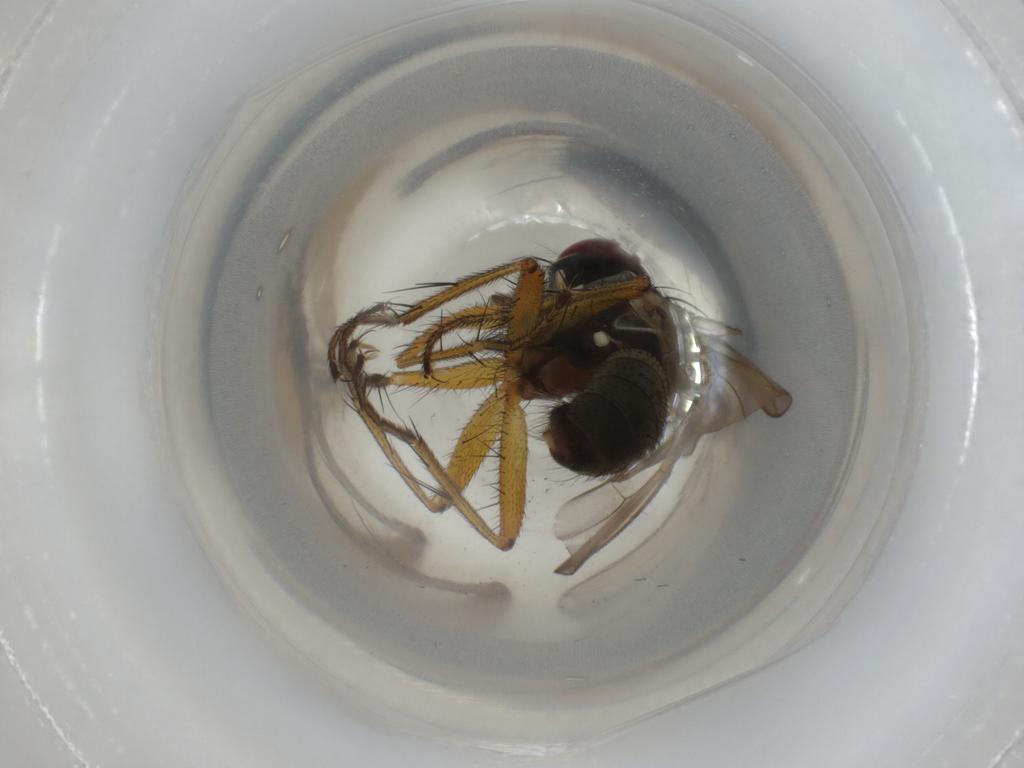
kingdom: Animalia
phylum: Arthropoda
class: Insecta
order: Diptera
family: Muscidae
